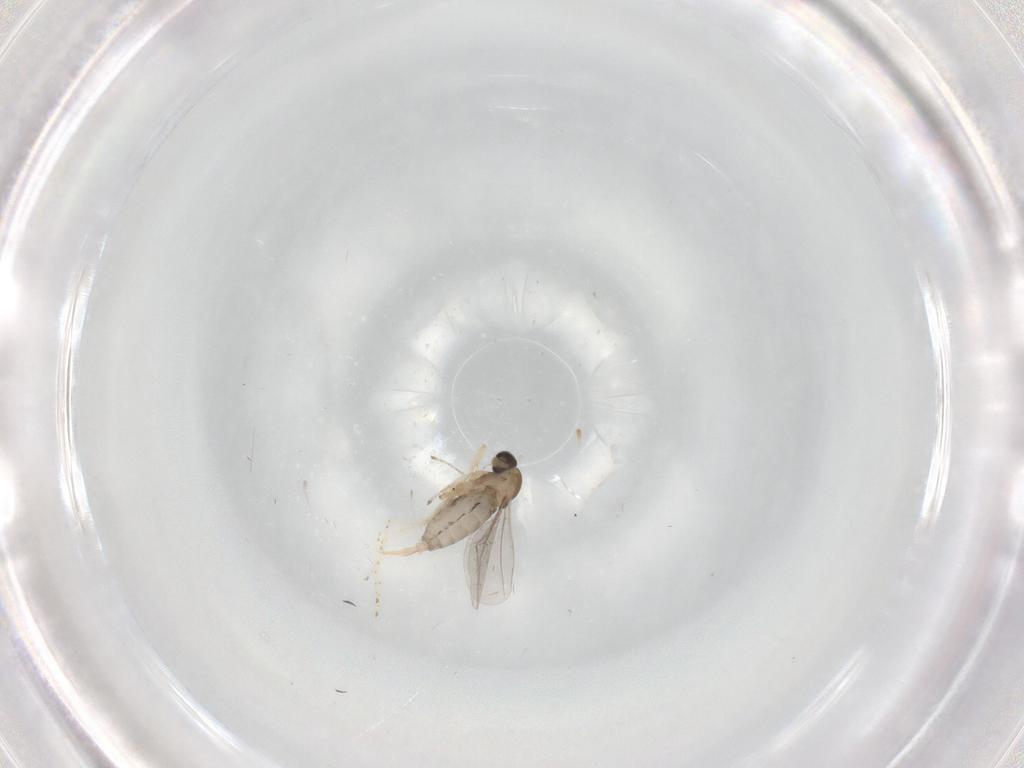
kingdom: Animalia
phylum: Arthropoda
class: Insecta
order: Diptera
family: Cecidomyiidae
